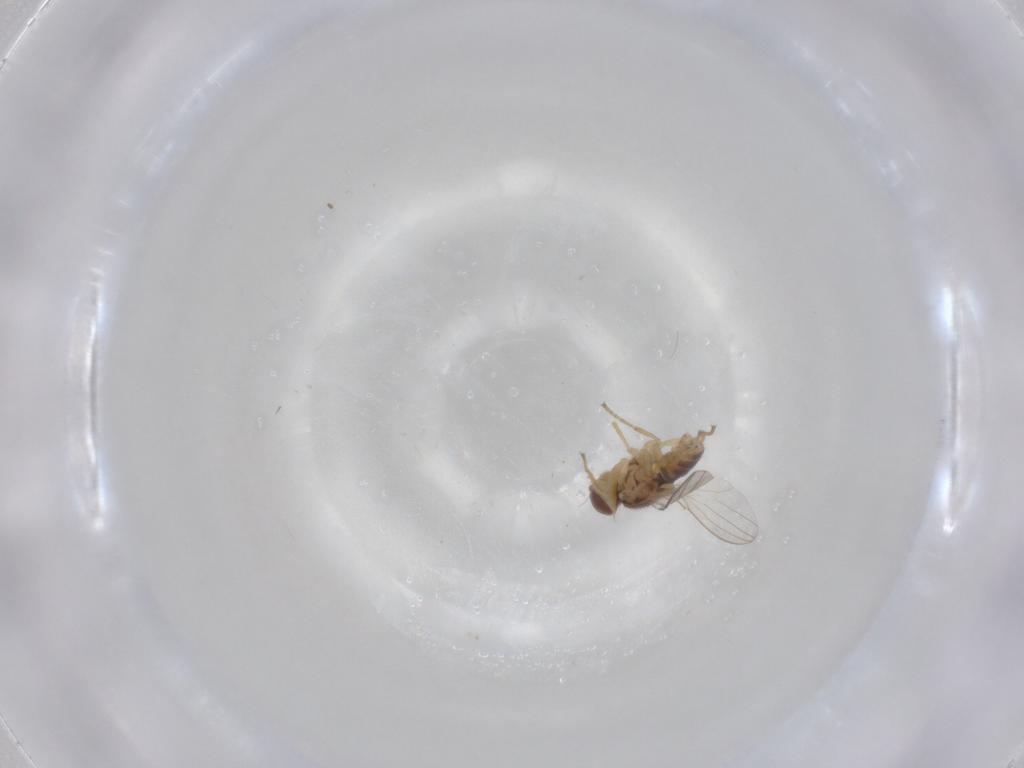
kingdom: Animalia
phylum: Arthropoda
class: Insecta
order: Diptera
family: Chyromyidae
